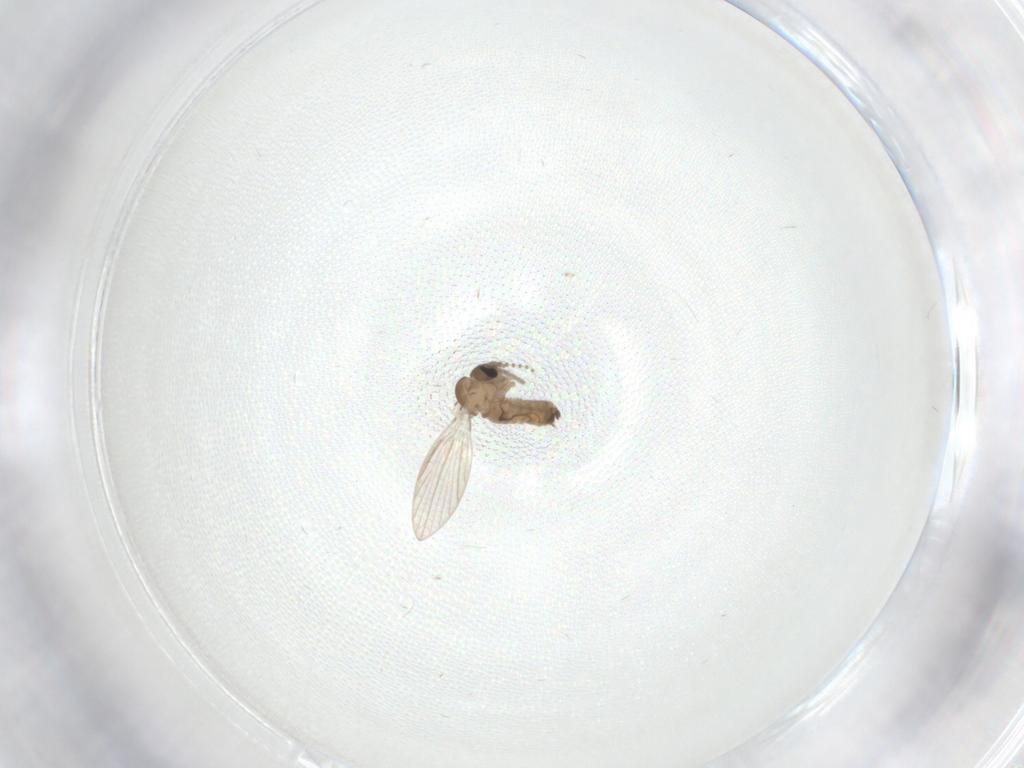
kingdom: Animalia
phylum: Arthropoda
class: Insecta
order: Diptera
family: Psychodidae
